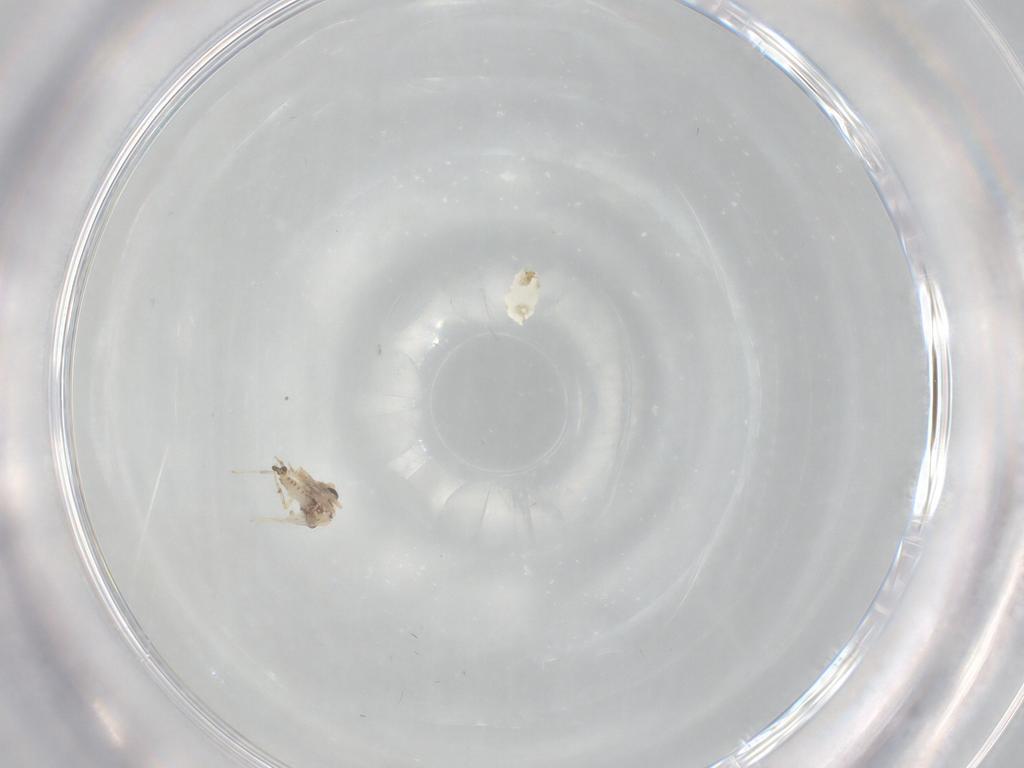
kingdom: Animalia
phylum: Arthropoda
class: Insecta
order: Diptera
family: Ceratopogonidae
